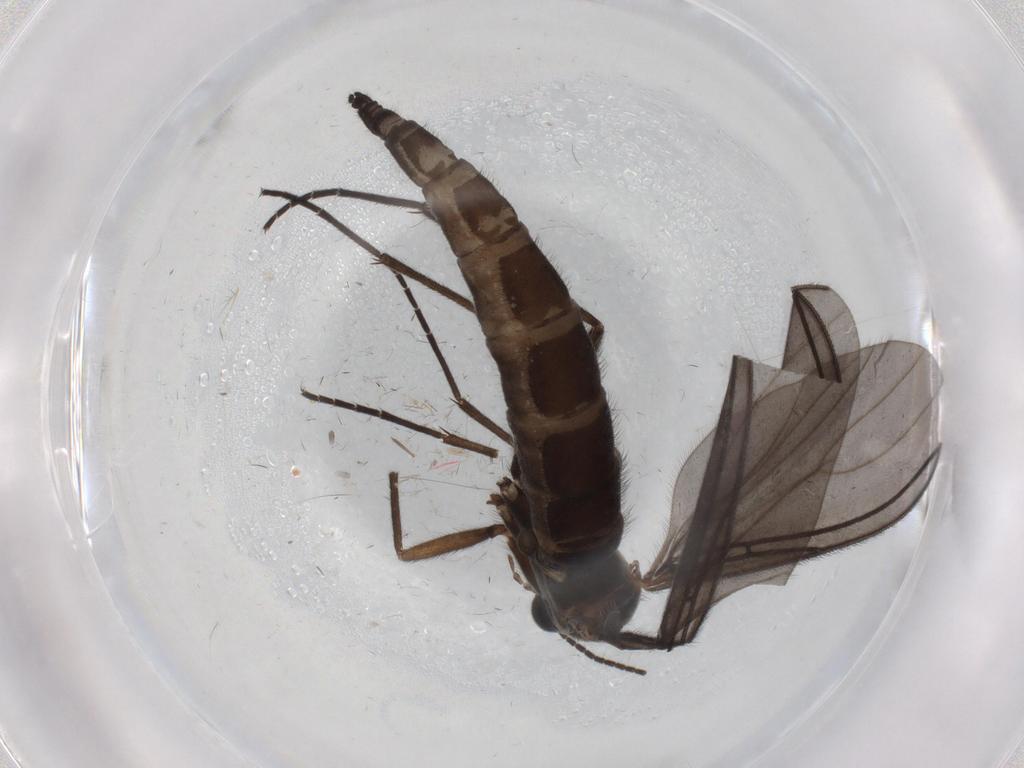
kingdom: Animalia
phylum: Arthropoda
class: Insecta
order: Diptera
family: Sciaridae
